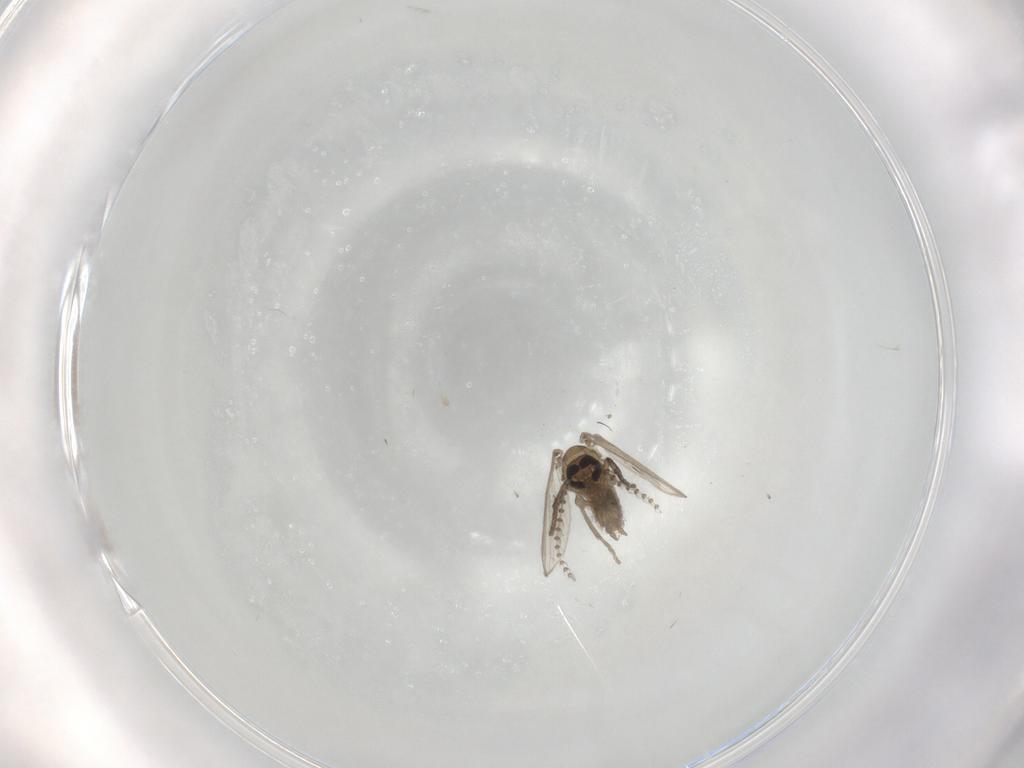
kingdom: Animalia
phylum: Arthropoda
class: Insecta
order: Diptera
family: Psychodidae
